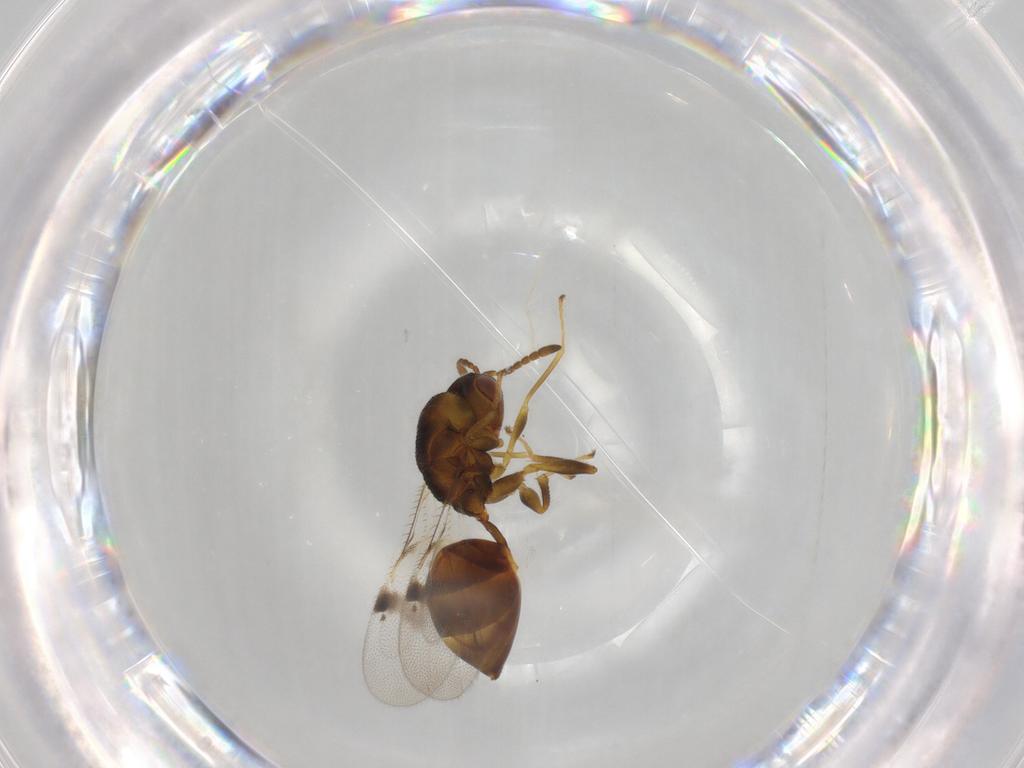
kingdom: Animalia
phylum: Arthropoda
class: Insecta
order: Hymenoptera
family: Eurytomidae
